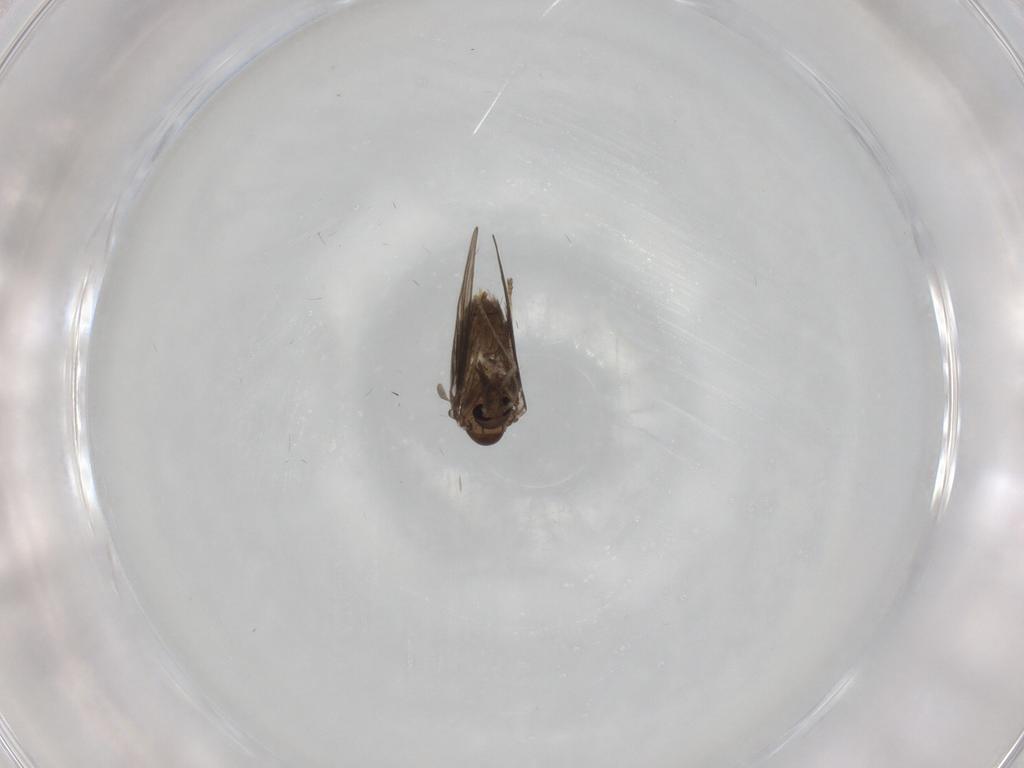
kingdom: Animalia
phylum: Arthropoda
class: Insecta
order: Diptera
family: Psychodidae
